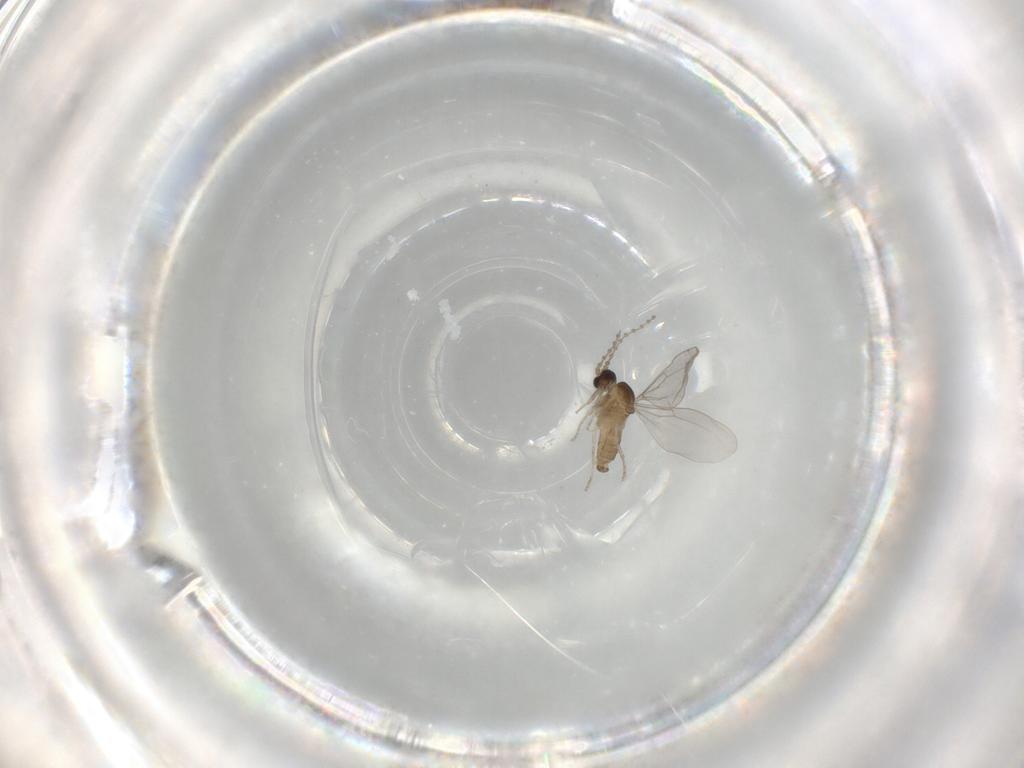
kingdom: Animalia
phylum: Arthropoda
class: Insecta
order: Diptera
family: Cecidomyiidae
